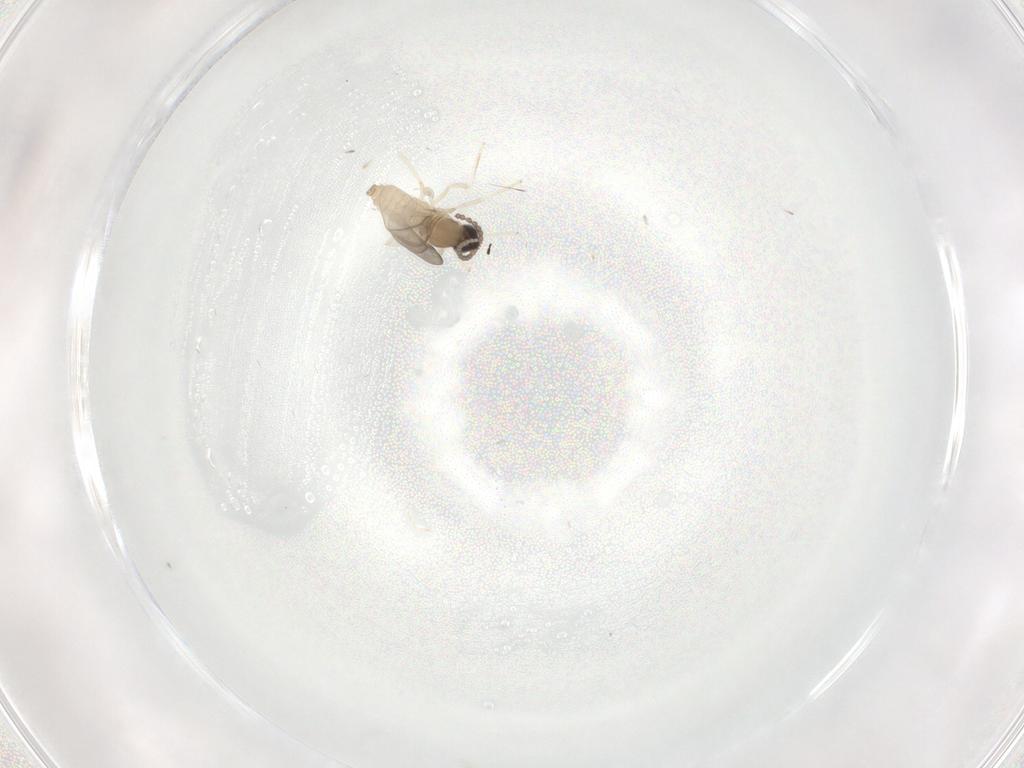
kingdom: Animalia
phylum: Arthropoda
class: Insecta
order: Diptera
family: Cecidomyiidae
